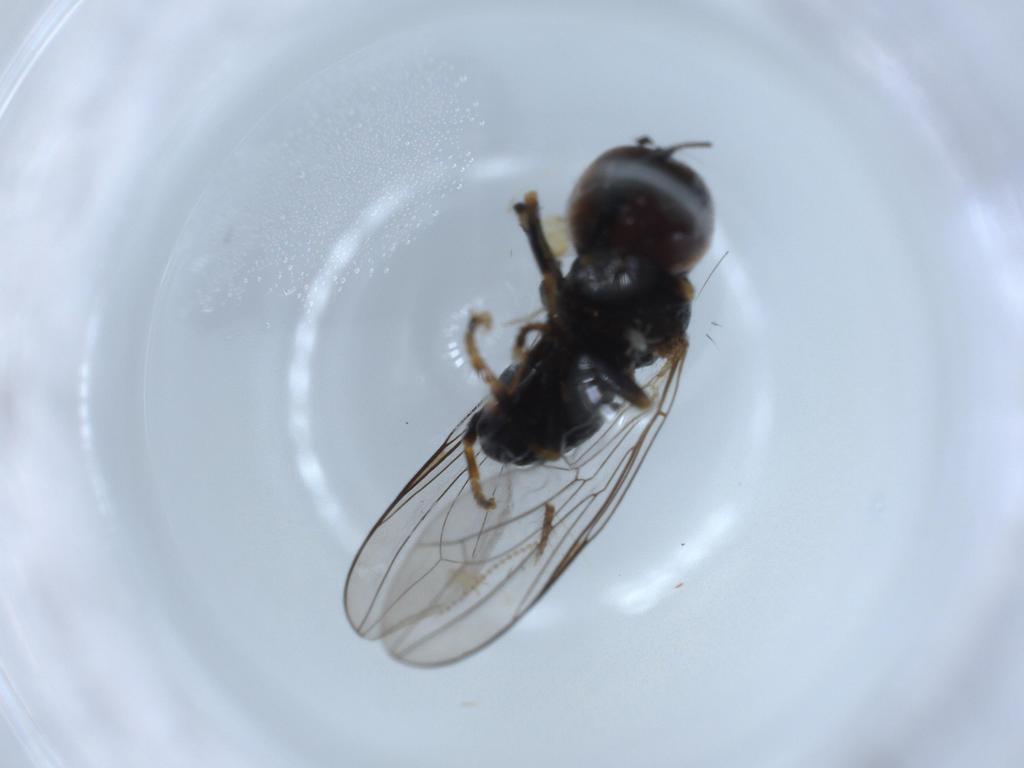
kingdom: Animalia
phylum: Arthropoda
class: Insecta
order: Diptera
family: Pipunculidae
